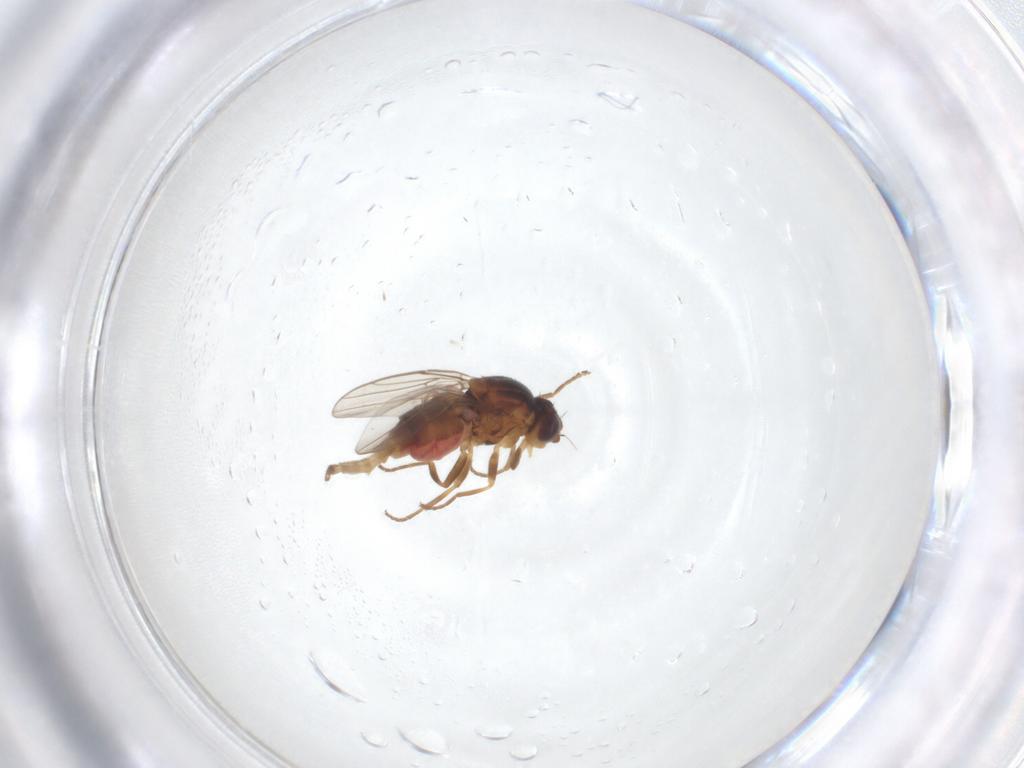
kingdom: Animalia
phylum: Arthropoda
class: Insecta
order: Diptera
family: Chloropidae
